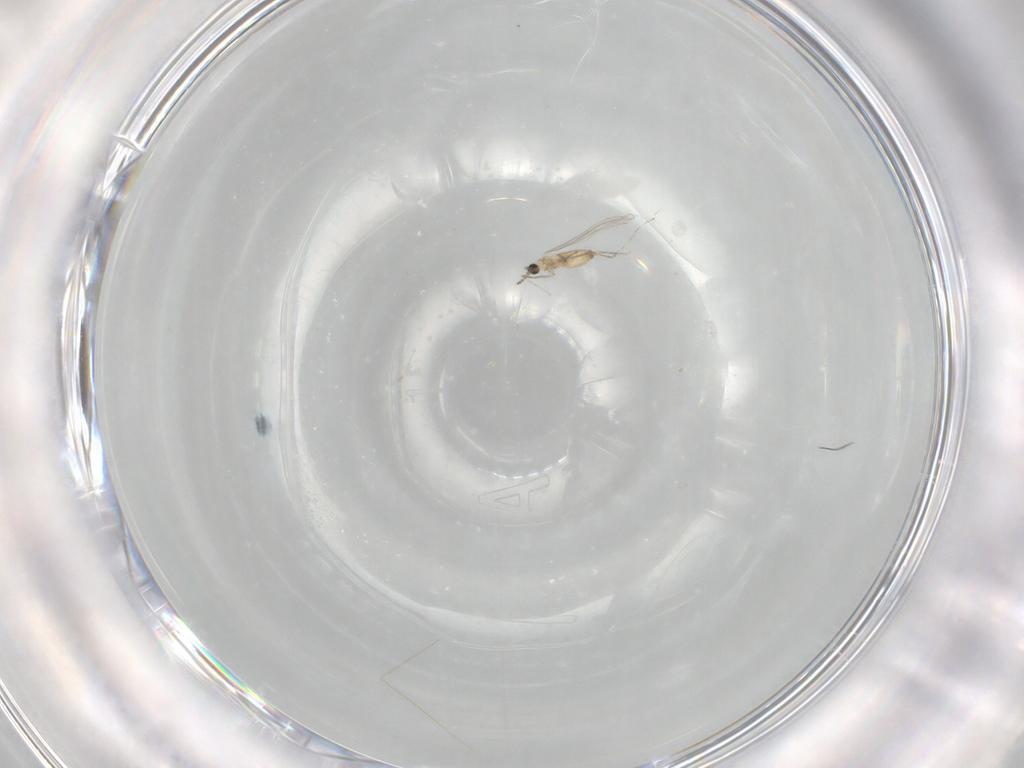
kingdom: Animalia
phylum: Arthropoda
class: Insecta
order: Diptera
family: Cecidomyiidae
